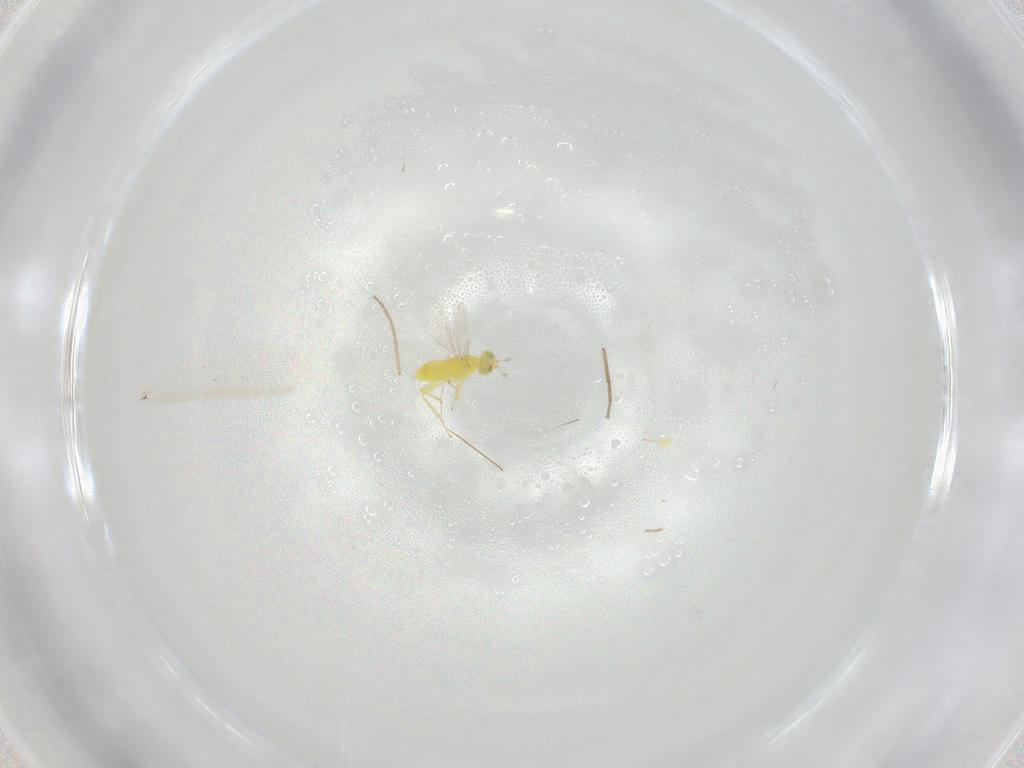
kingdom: Animalia
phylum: Arthropoda
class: Insecta
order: Hymenoptera
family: Aphelinidae
